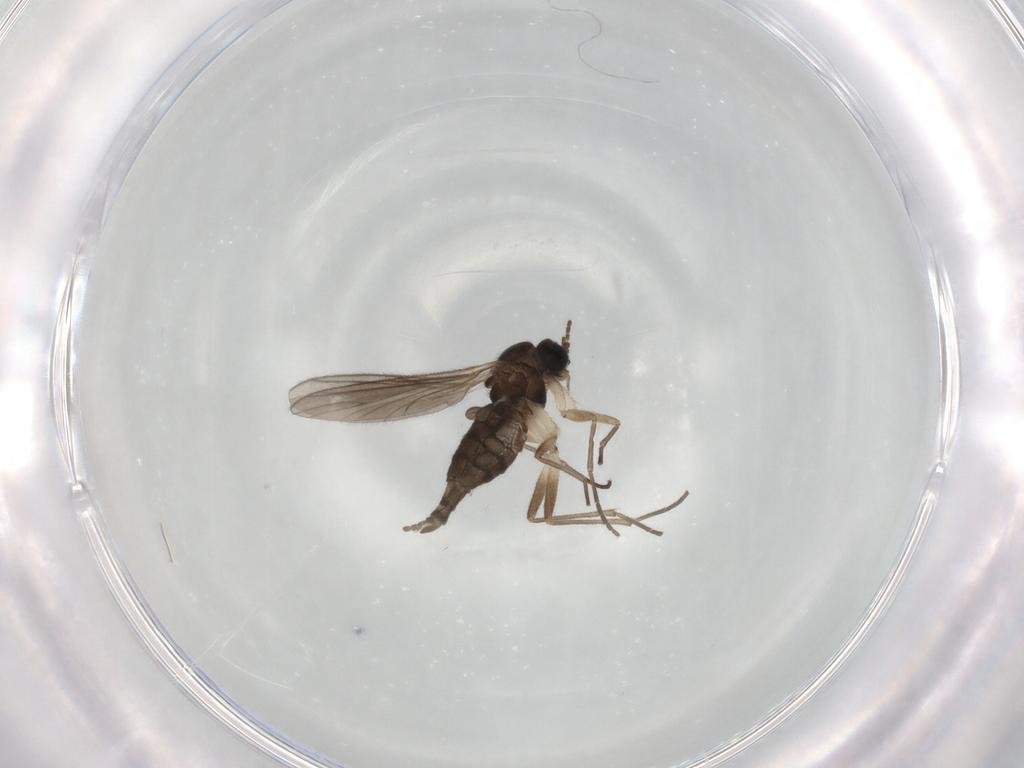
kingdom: Animalia
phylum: Arthropoda
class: Insecta
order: Diptera
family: Sciaridae
